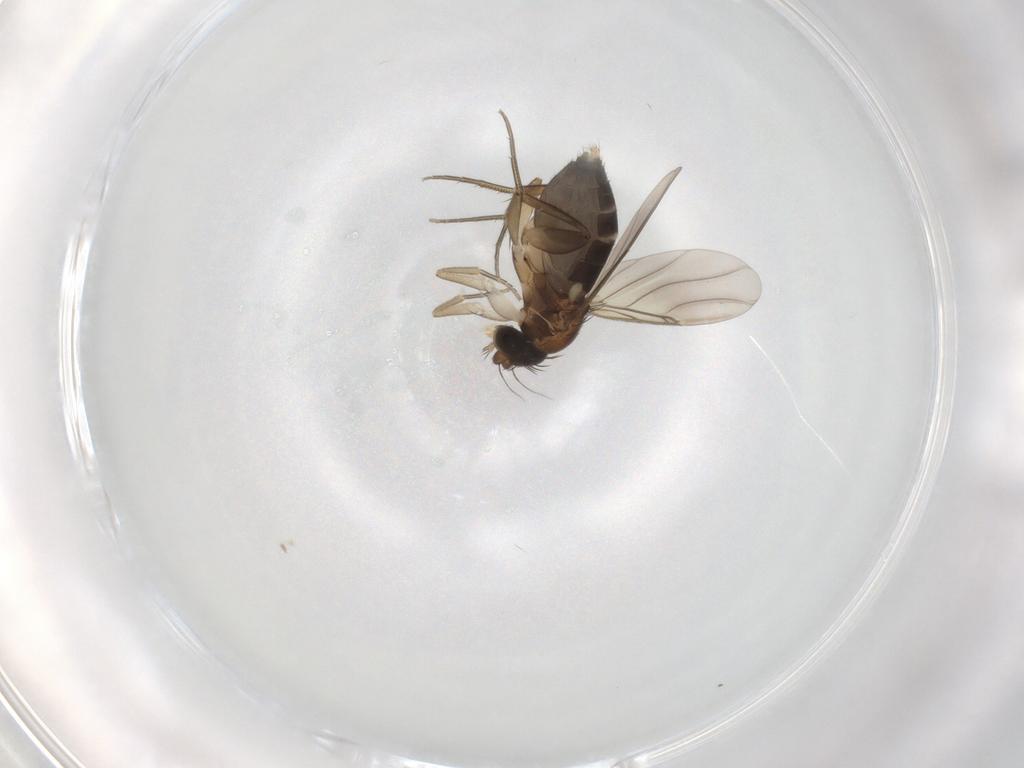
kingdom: Animalia
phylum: Arthropoda
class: Insecta
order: Diptera
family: Phoridae
